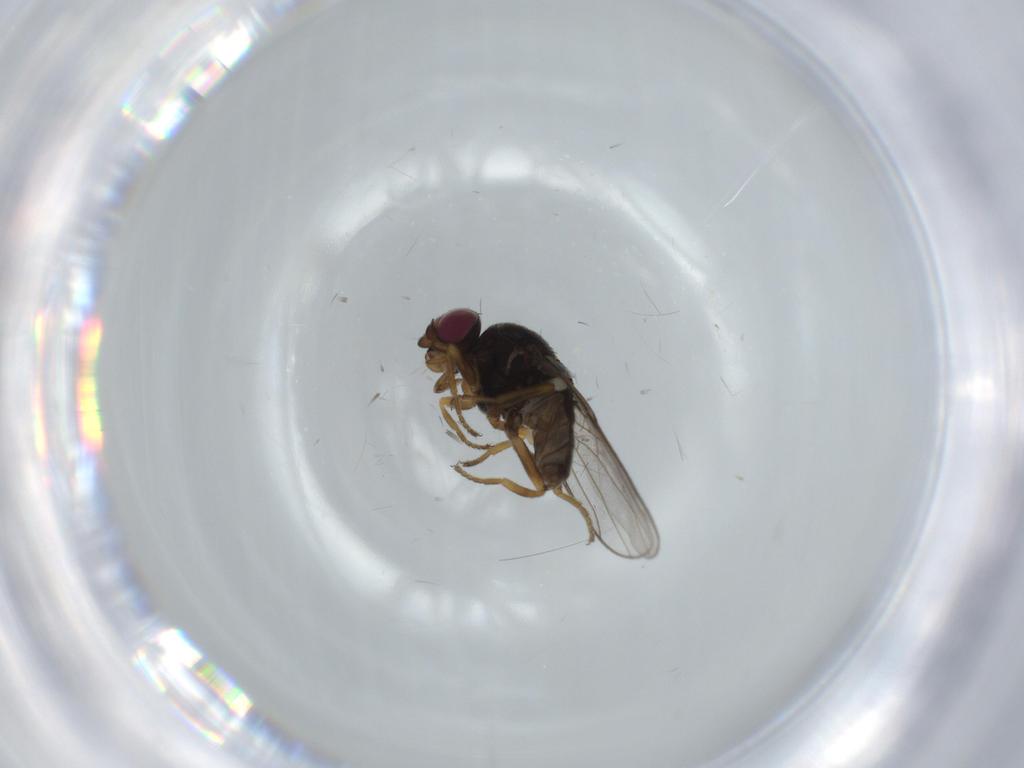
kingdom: Animalia
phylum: Arthropoda
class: Insecta
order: Diptera
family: Chloropidae
